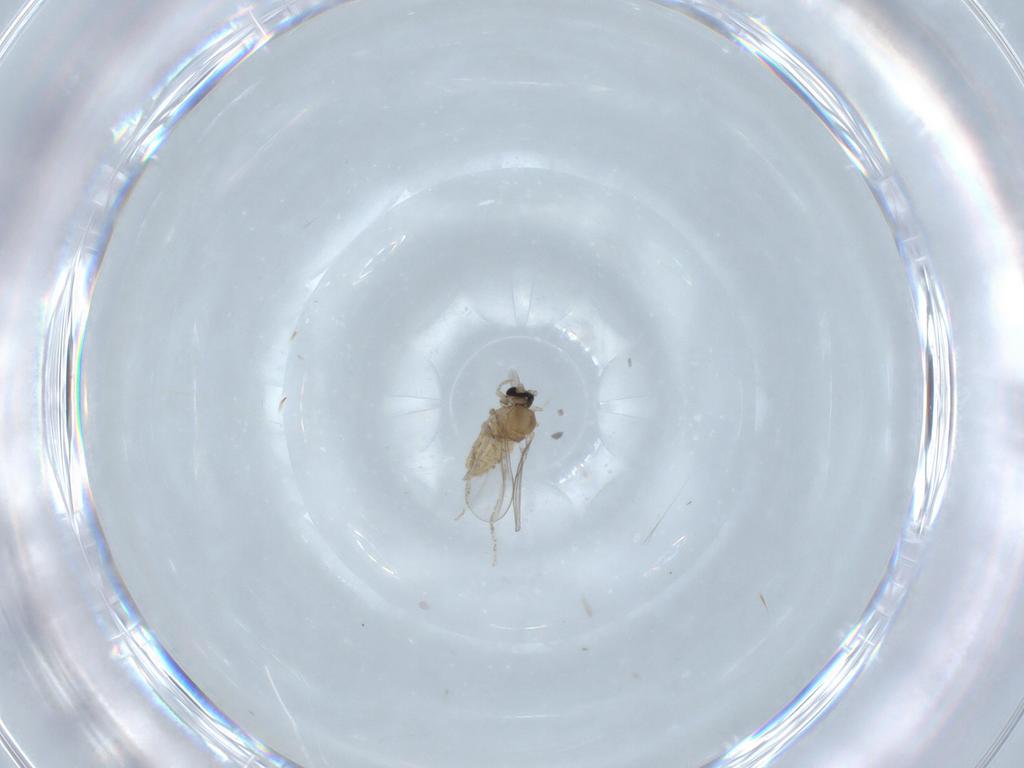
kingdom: Animalia
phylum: Arthropoda
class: Insecta
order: Diptera
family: Cecidomyiidae
